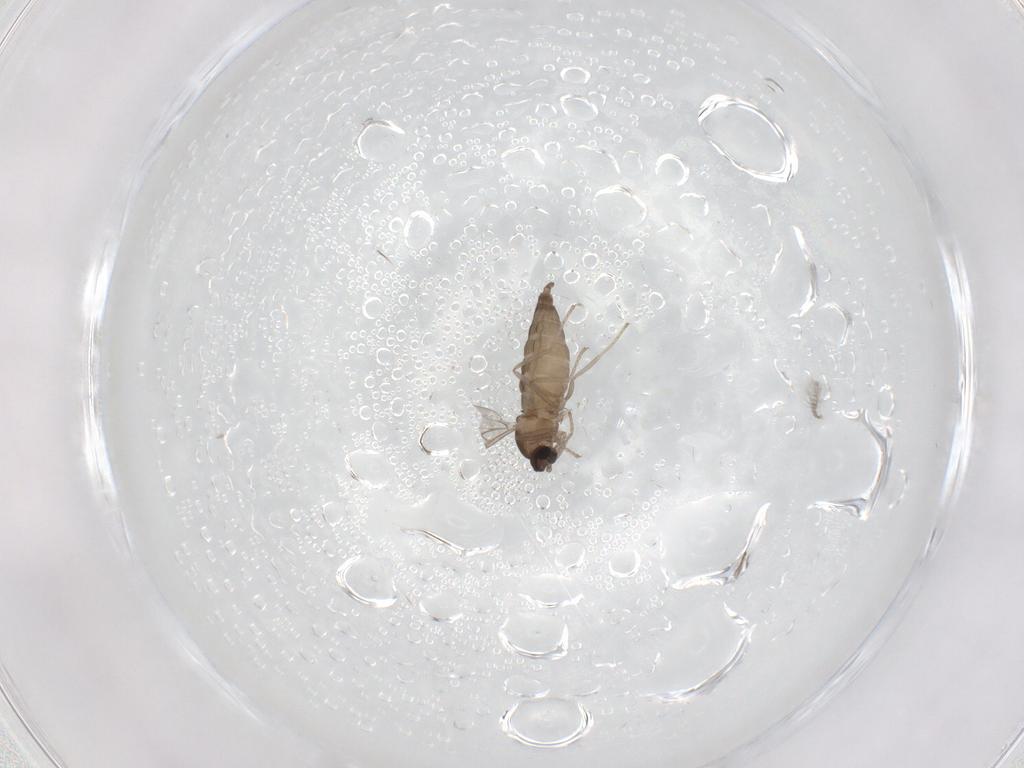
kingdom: Animalia
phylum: Arthropoda
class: Insecta
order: Diptera
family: Cecidomyiidae
